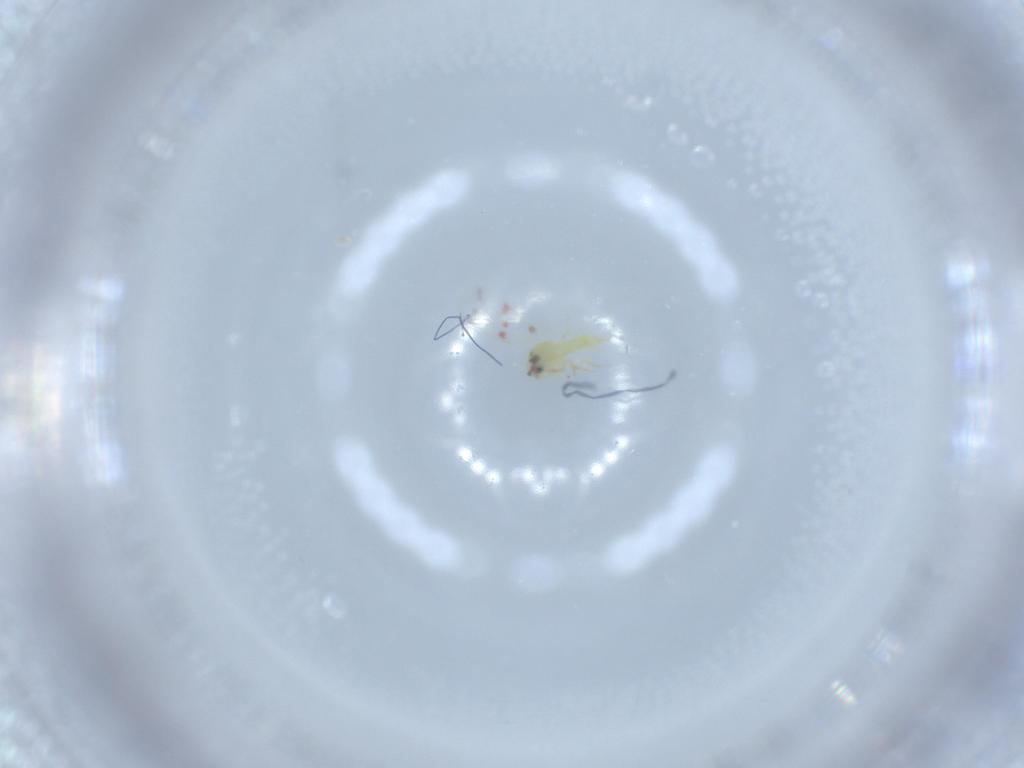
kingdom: Animalia
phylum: Arthropoda
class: Insecta
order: Hemiptera
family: Aleyrodidae
